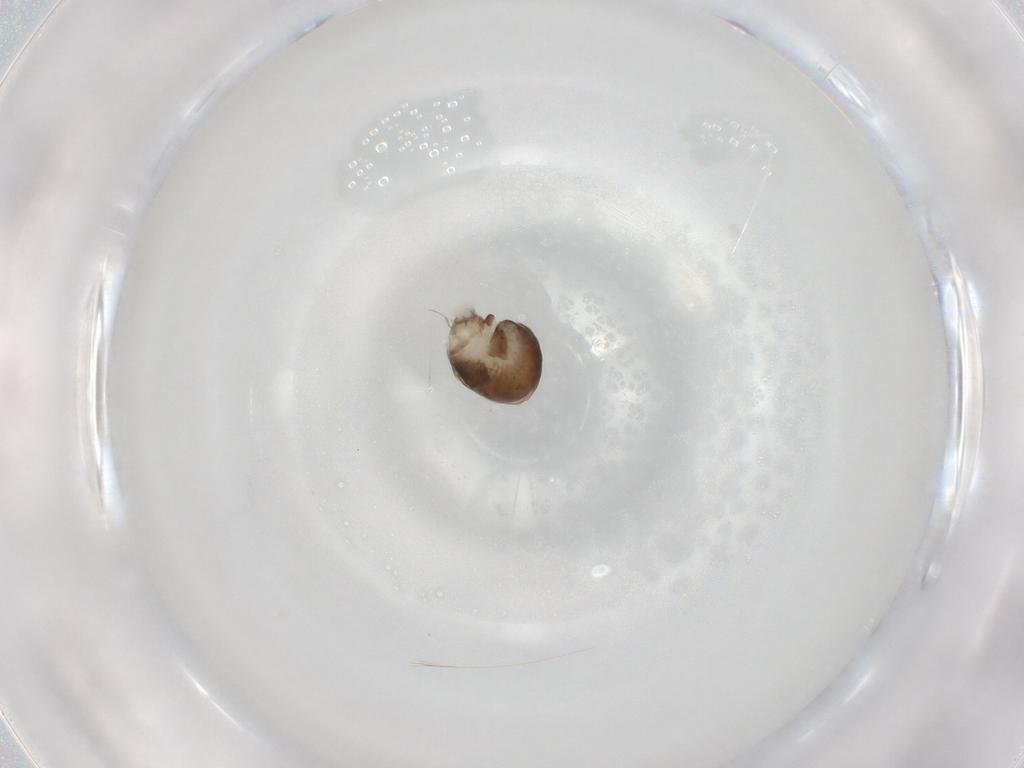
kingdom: Animalia
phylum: Arthropoda
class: Insecta
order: Hymenoptera
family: Dryinidae
